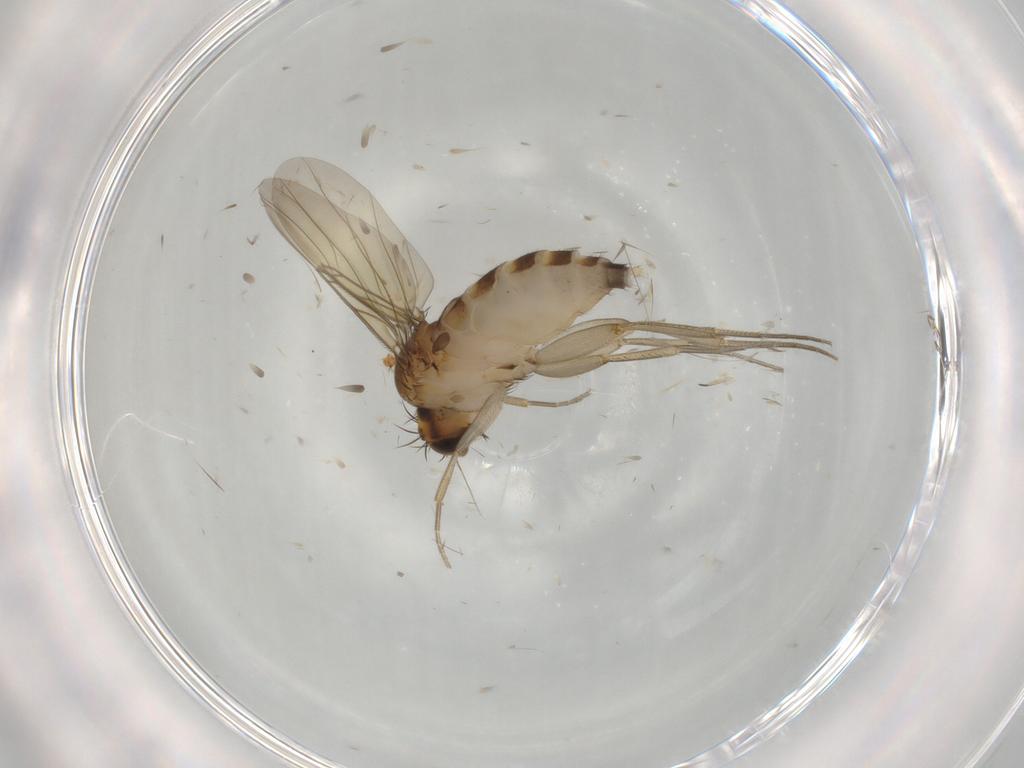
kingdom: Animalia
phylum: Arthropoda
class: Insecta
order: Diptera
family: Phoridae
